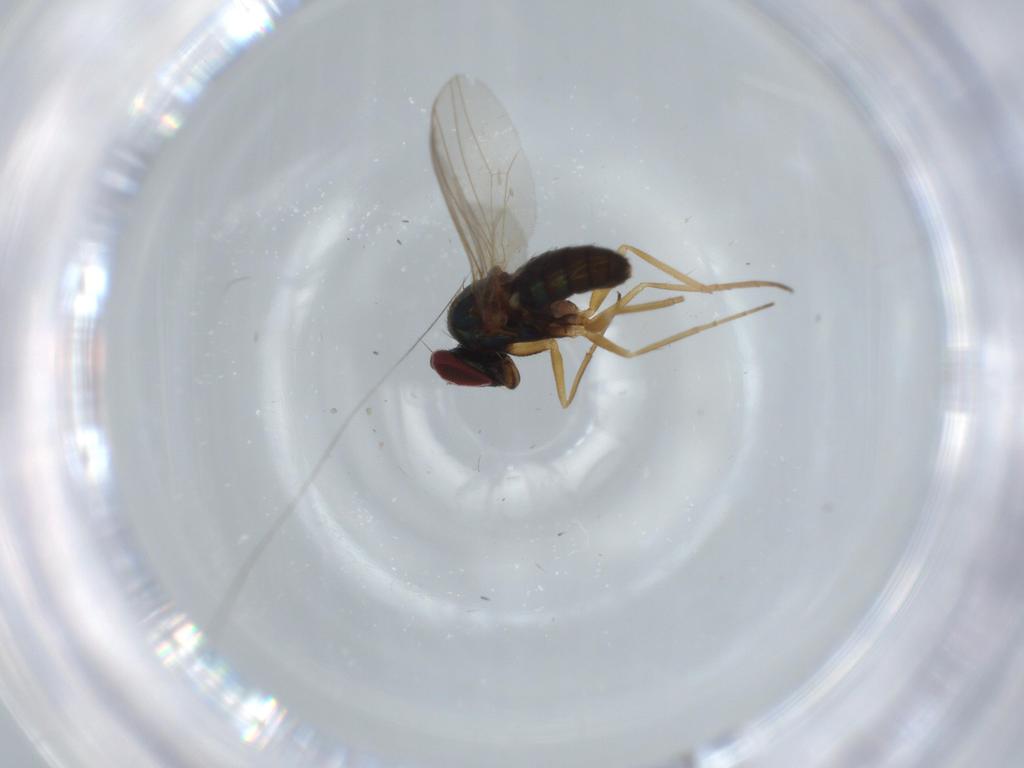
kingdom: Animalia
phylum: Arthropoda
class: Insecta
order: Diptera
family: Dolichopodidae
